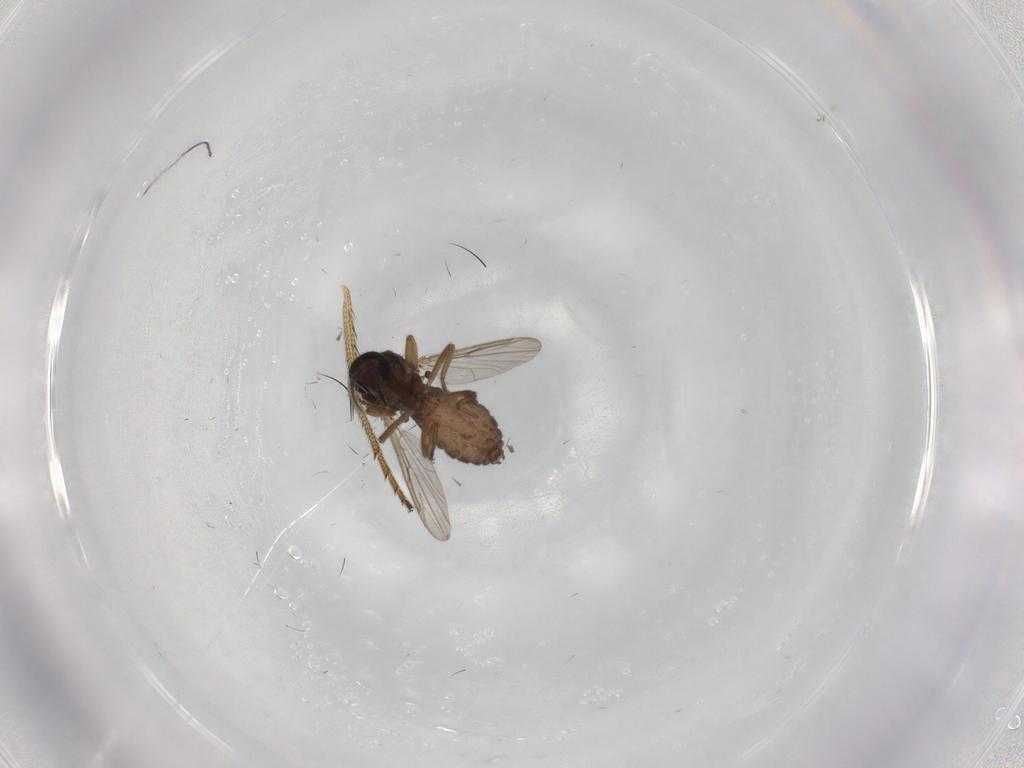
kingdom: Animalia
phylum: Arthropoda
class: Insecta
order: Diptera
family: Ceratopogonidae
